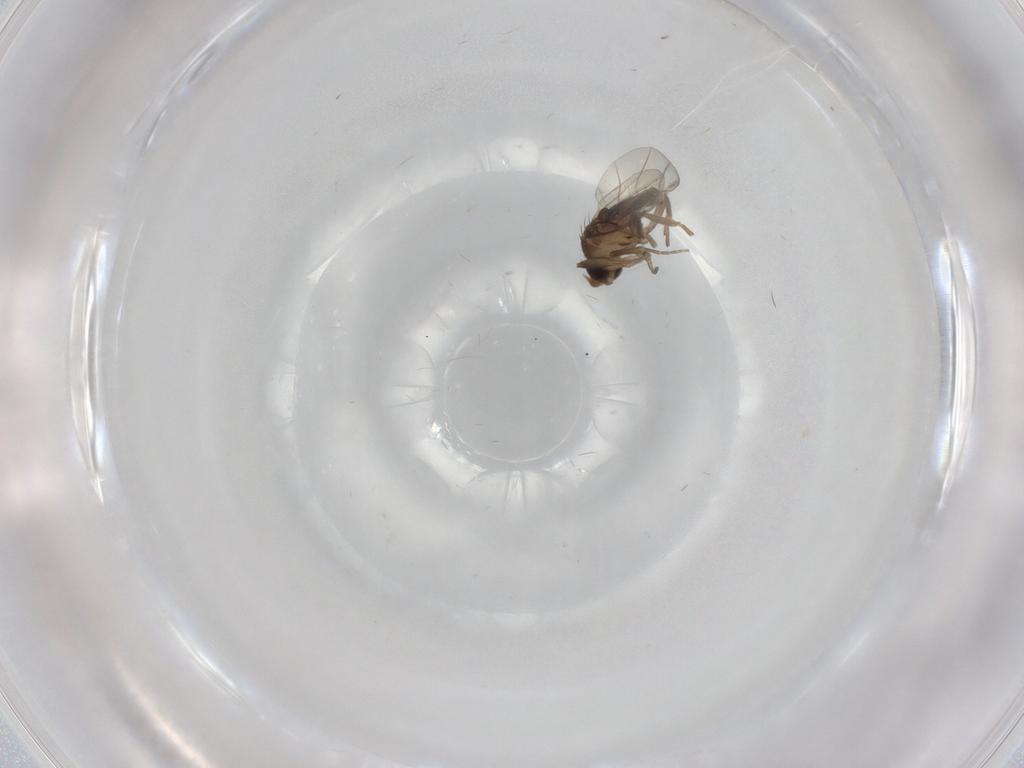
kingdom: Animalia
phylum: Arthropoda
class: Insecta
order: Diptera
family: Phoridae
